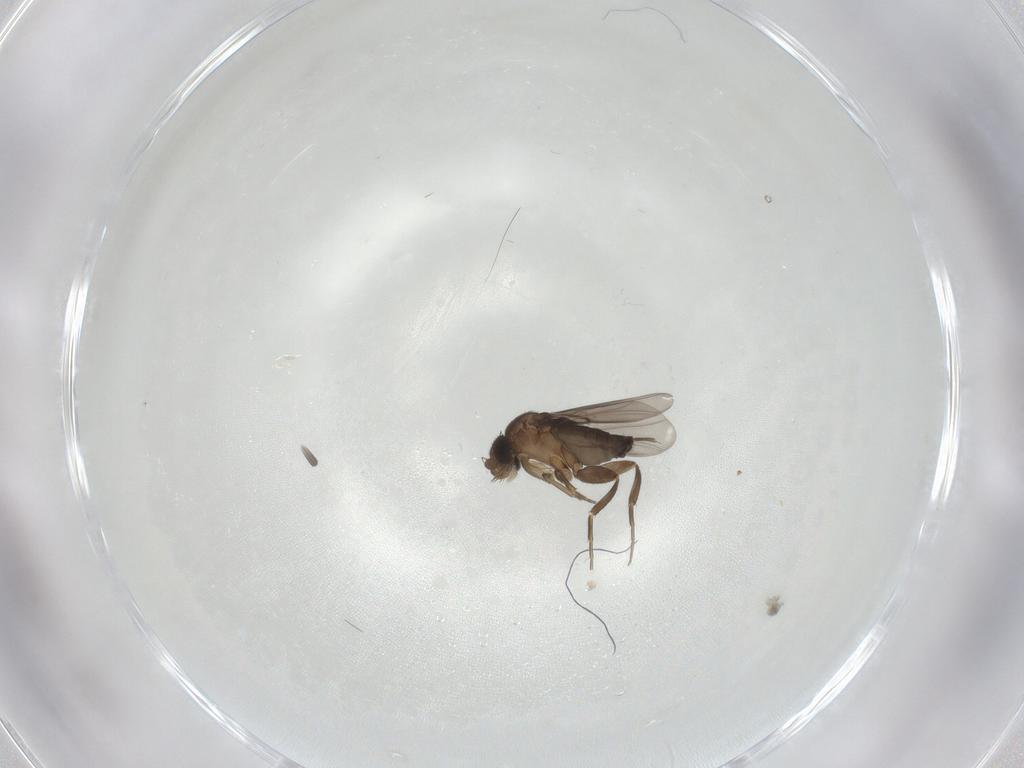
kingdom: Animalia
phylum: Arthropoda
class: Insecta
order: Diptera
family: Phoridae
